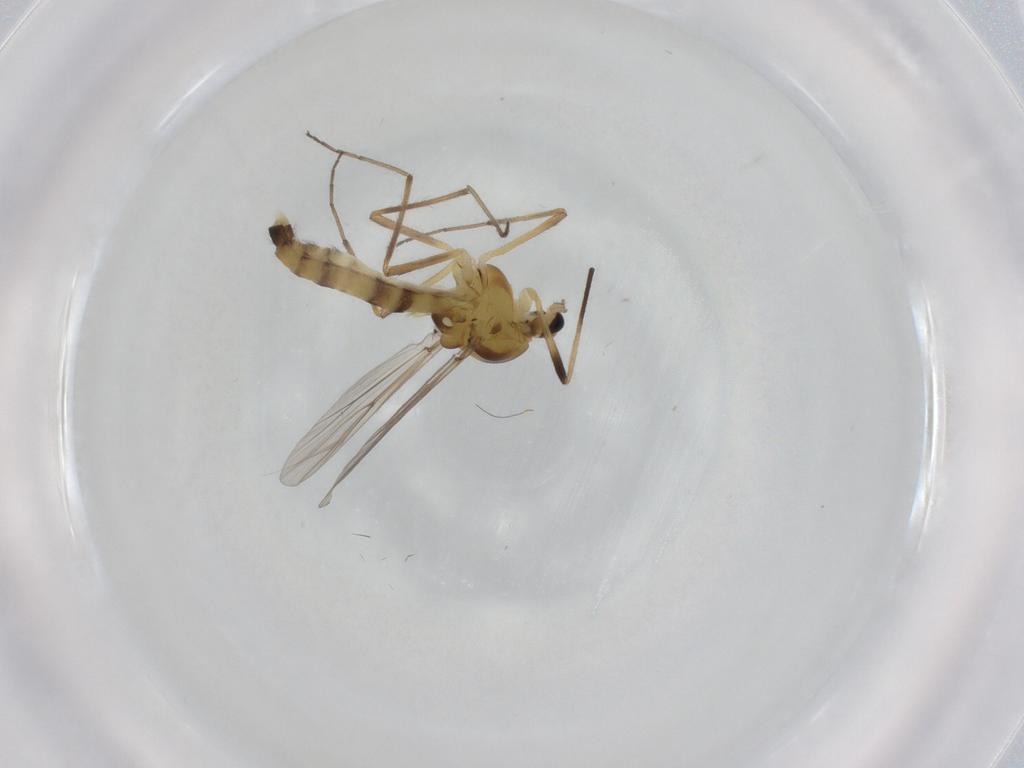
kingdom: Animalia
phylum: Arthropoda
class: Insecta
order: Diptera
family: Chironomidae
